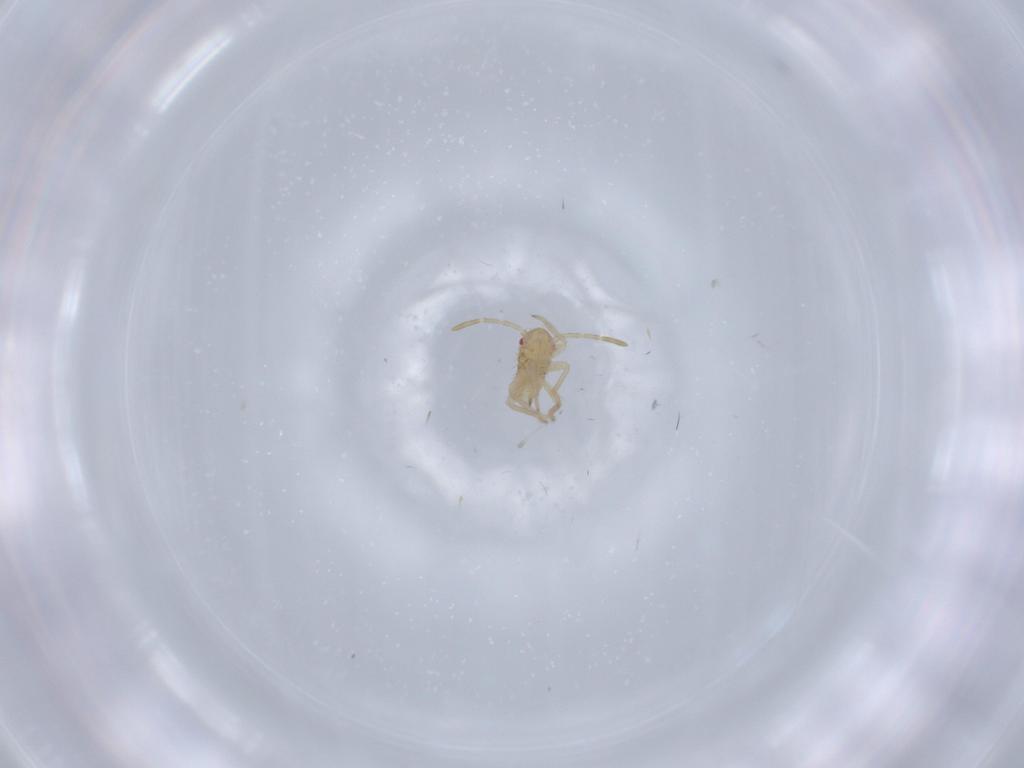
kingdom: Animalia
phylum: Arthropoda
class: Insecta
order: Hemiptera
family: Miridae
